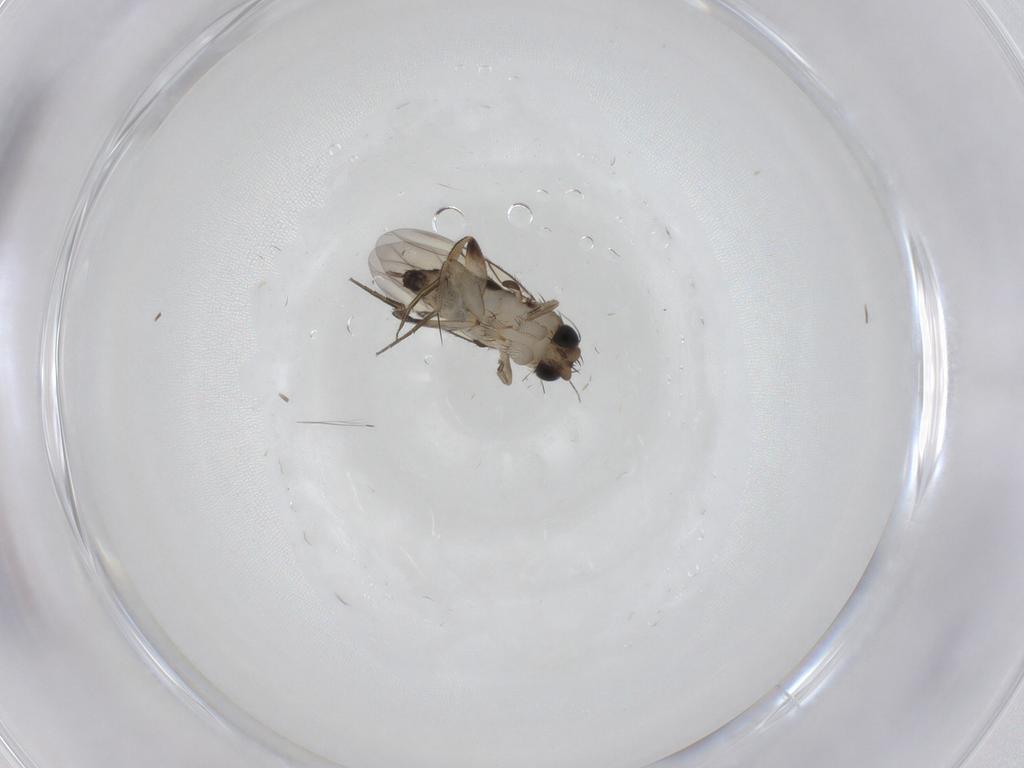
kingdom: Animalia
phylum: Arthropoda
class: Insecta
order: Diptera
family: Phoridae
